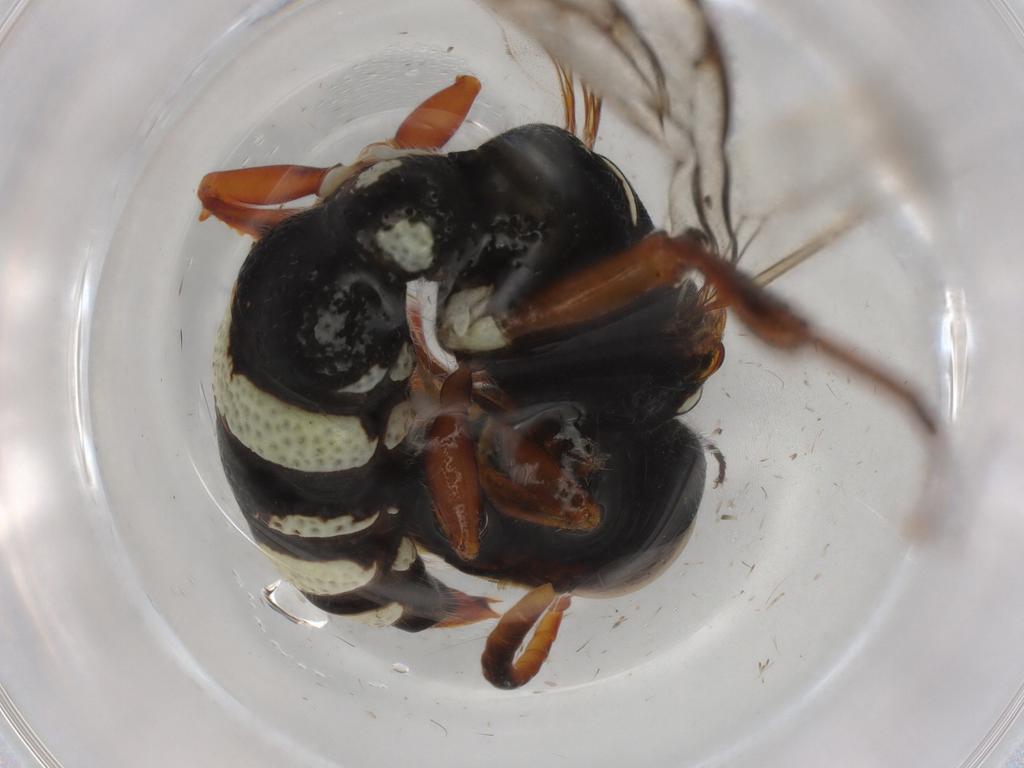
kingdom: Animalia
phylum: Arthropoda
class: Insecta
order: Hymenoptera
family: Philanthidae
